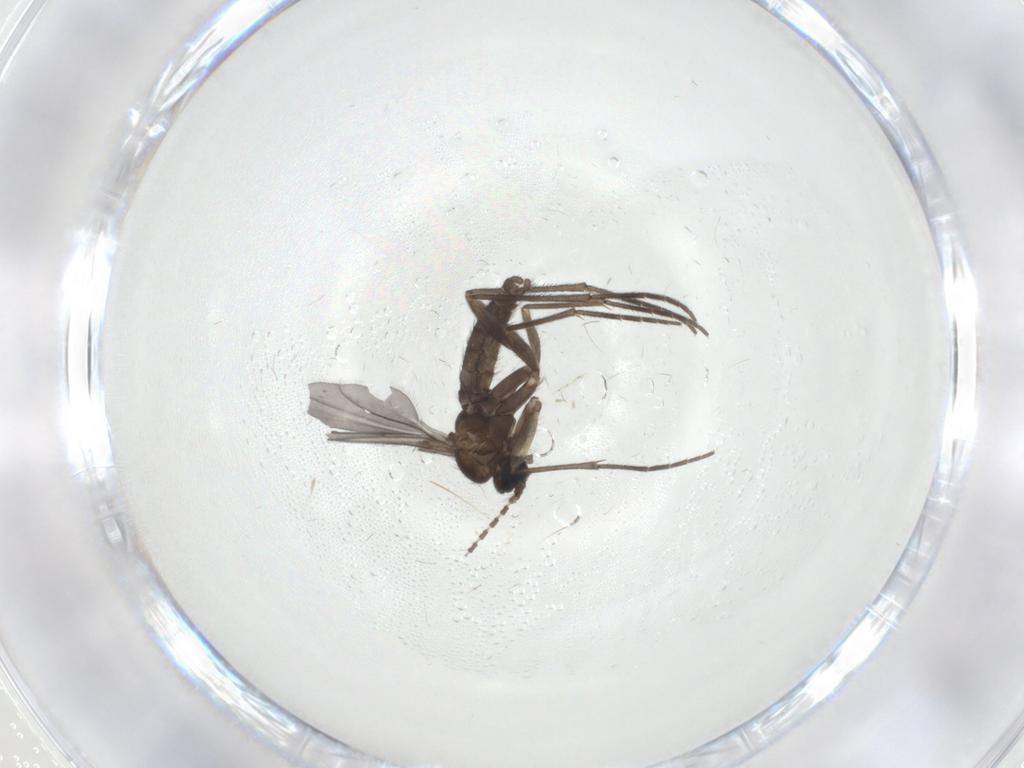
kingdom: Animalia
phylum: Arthropoda
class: Insecta
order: Diptera
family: Sciaridae
